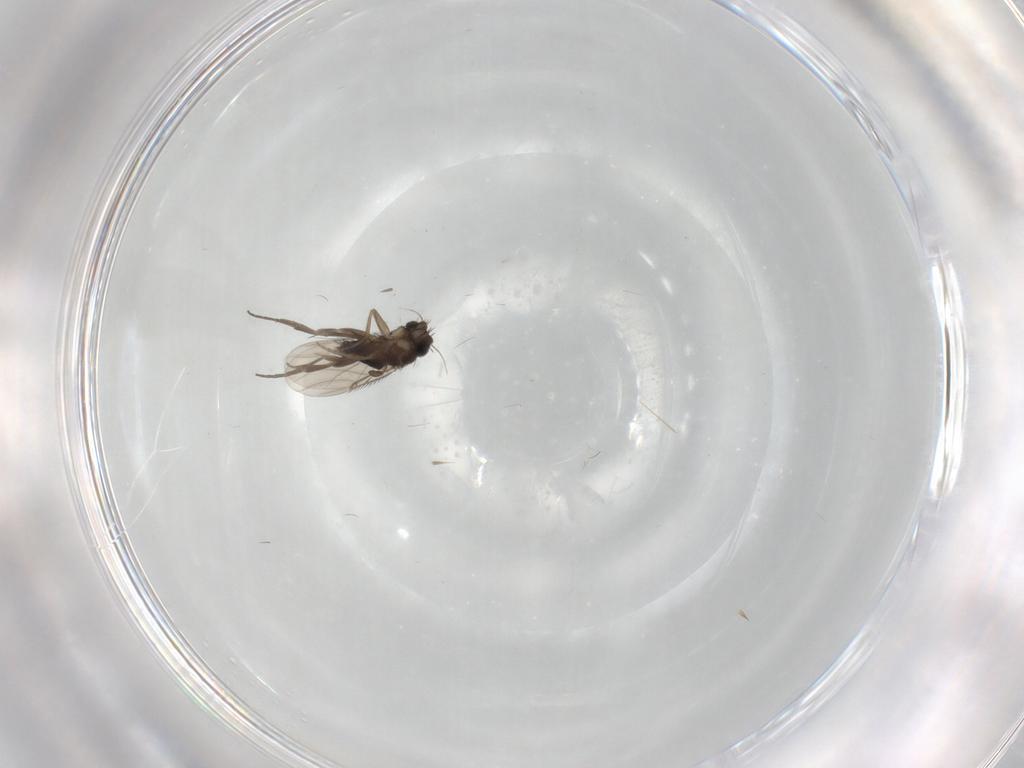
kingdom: Animalia
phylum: Arthropoda
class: Insecta
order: Diptera
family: Phoridae
